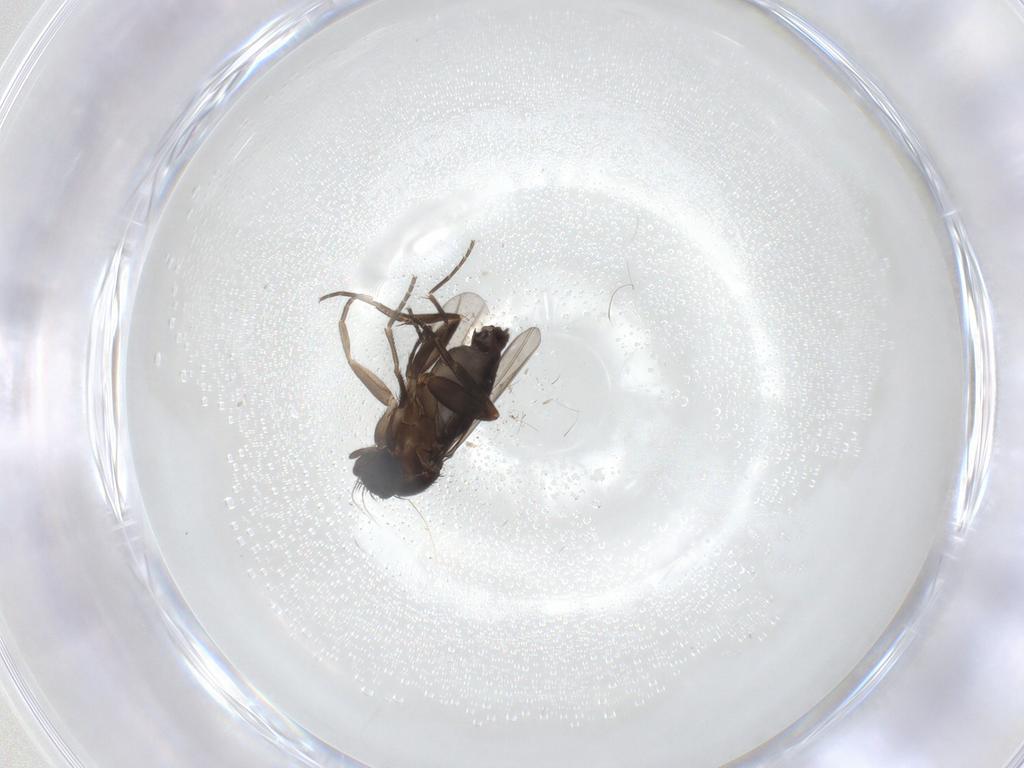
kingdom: Animalia
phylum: Arthropoda
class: Insecta
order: Diptera
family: Phoridae
